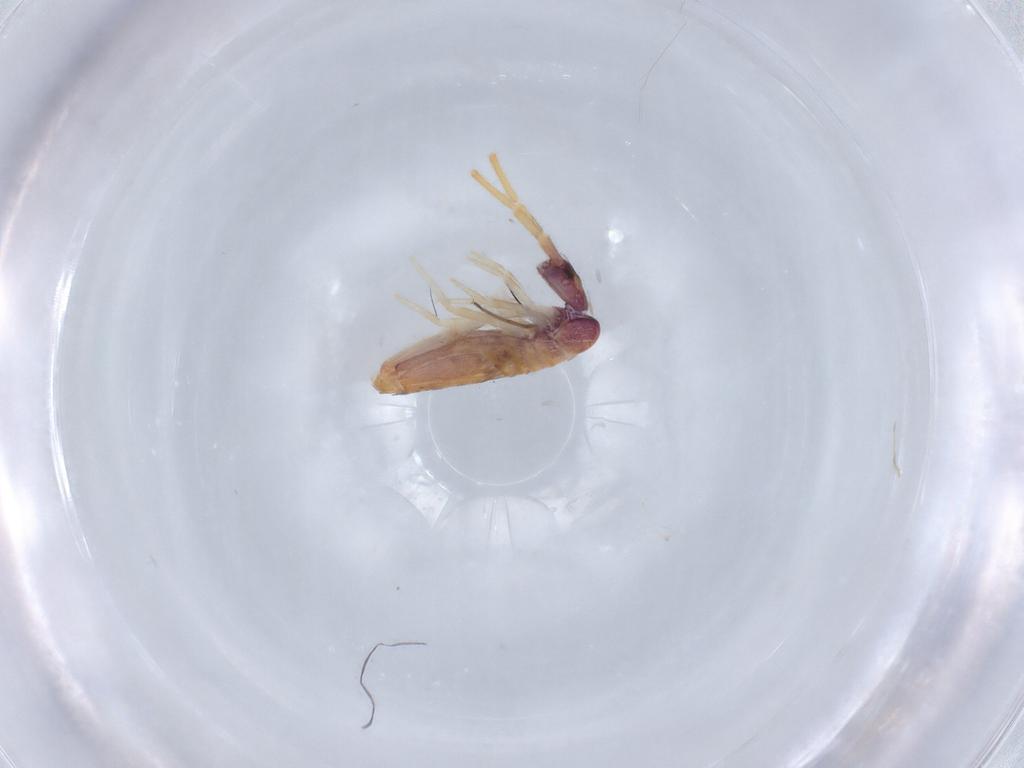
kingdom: Animalia
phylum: Arthropoda
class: Collembola
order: Entomobryomorpha
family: Entomobryidae
